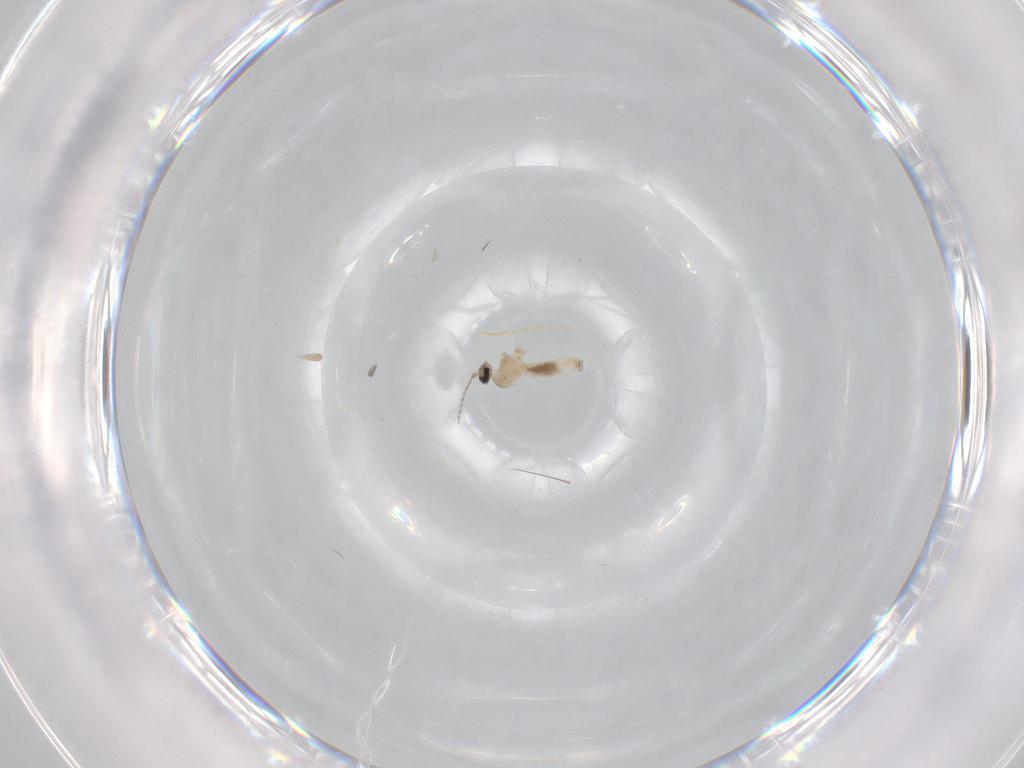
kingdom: Animalia
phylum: Arthropoda
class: Insecta
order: Diptera
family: Cecidomyiidae
